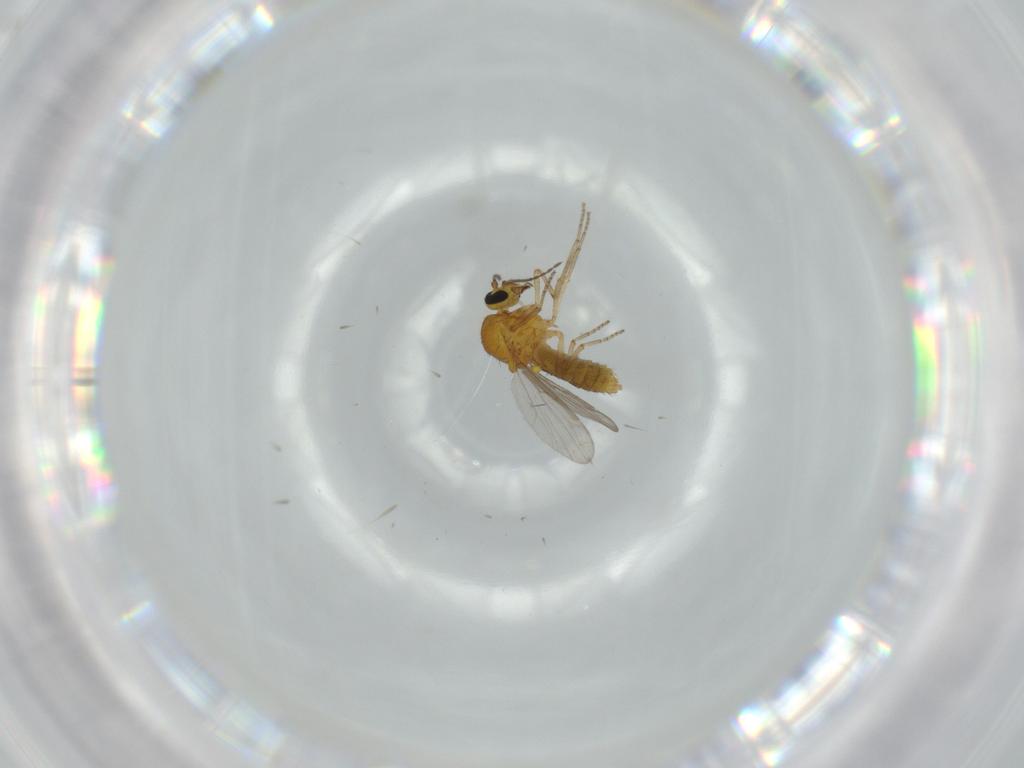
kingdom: Animalia
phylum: Arthropoda
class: Insecta
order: Diptera
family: Ceratopogonidae
